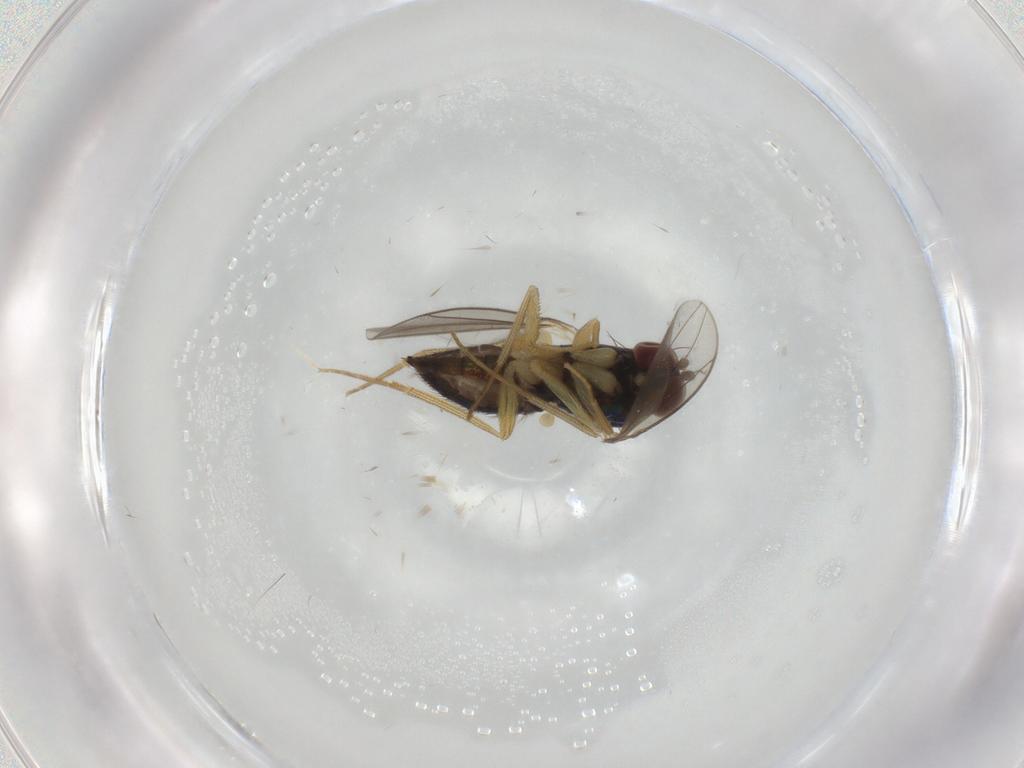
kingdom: Animalia
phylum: Arthropoda
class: Insecta
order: Diptera
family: Dolichopodidae
